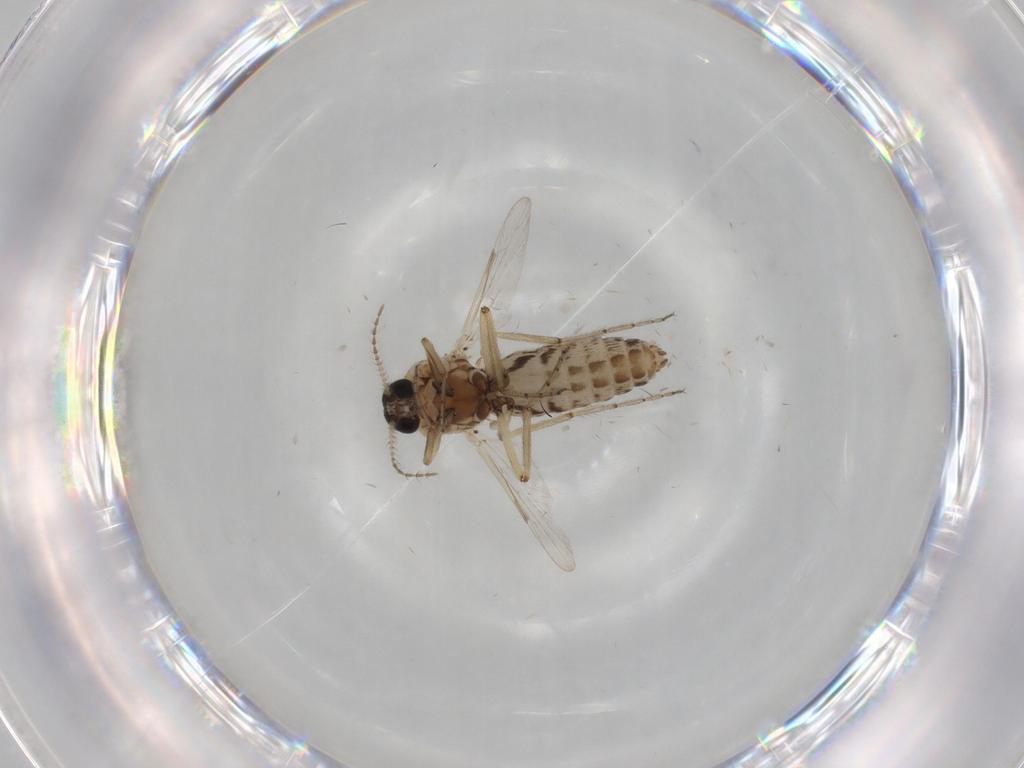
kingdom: Animalia
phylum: Arthropoda
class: Insecta
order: Diptera
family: Ceratopogonidae
